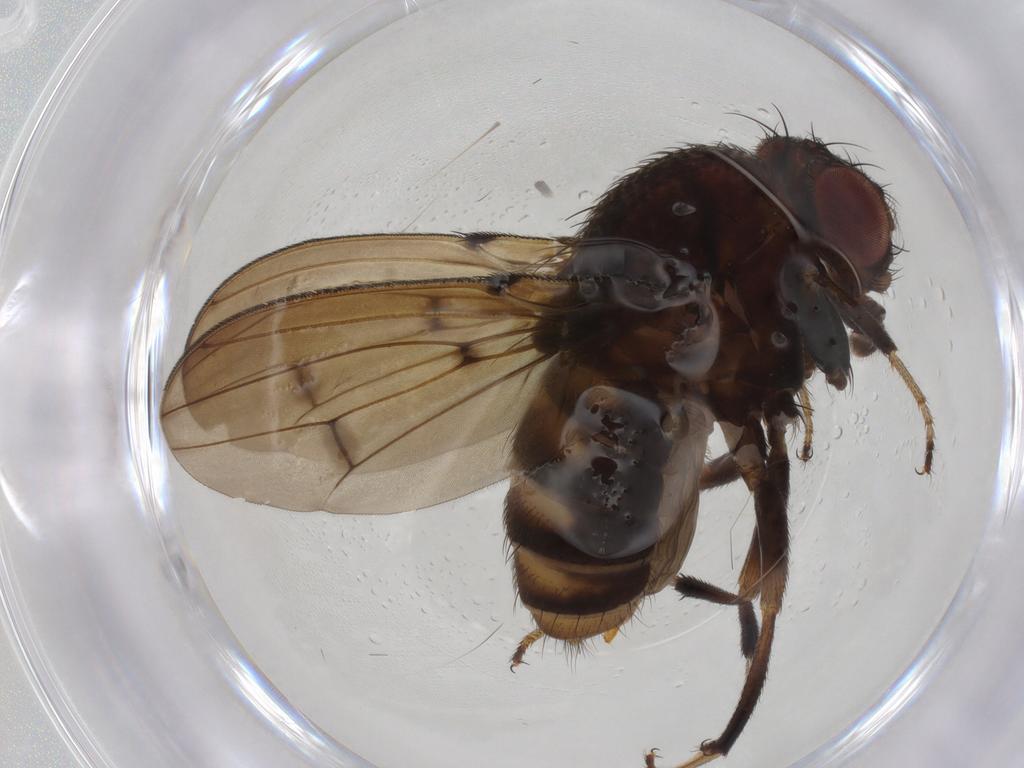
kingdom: Animalia
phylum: Arthropoda
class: Insecta
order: Diptera
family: Drosophilidae
